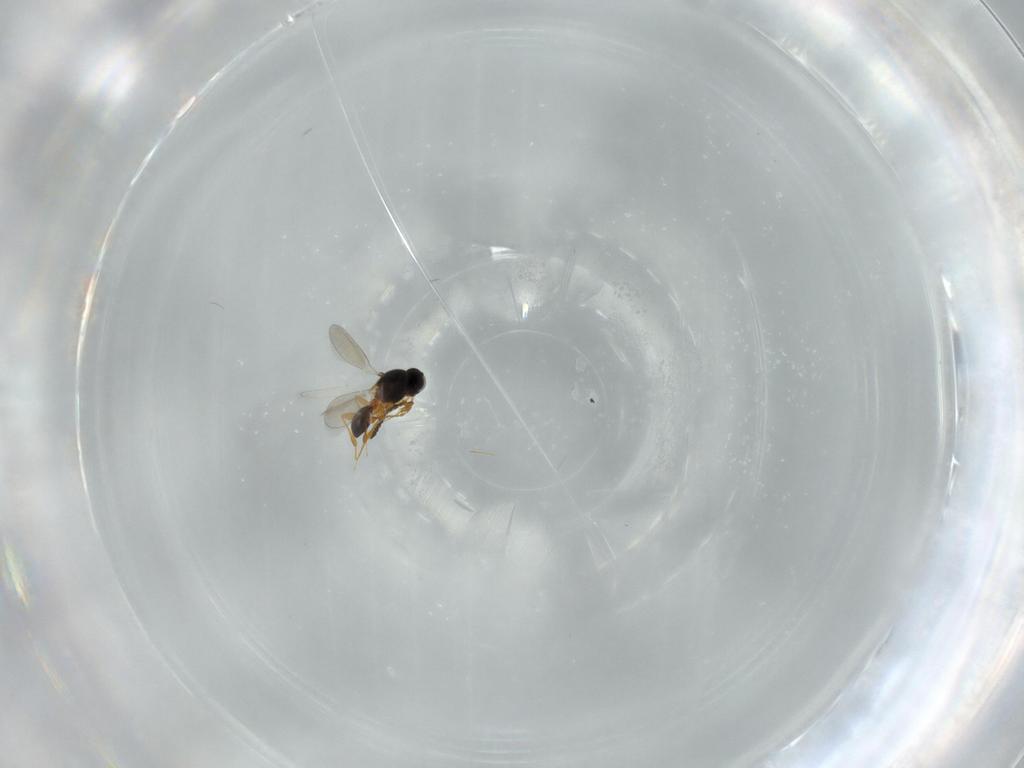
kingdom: Animalia
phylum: Arthropoda
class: Insecta
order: Hymenoptera
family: Platygastridae
